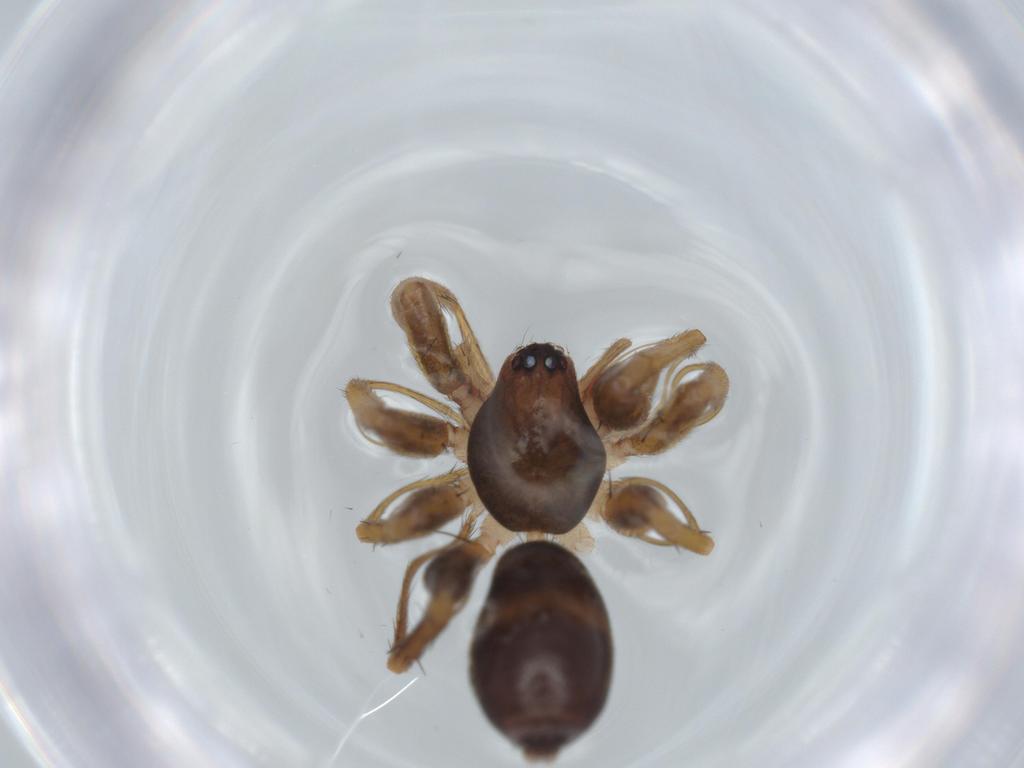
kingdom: Animalia
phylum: Arthropoda
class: Arachnida
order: Araneae
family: Corinnidae
